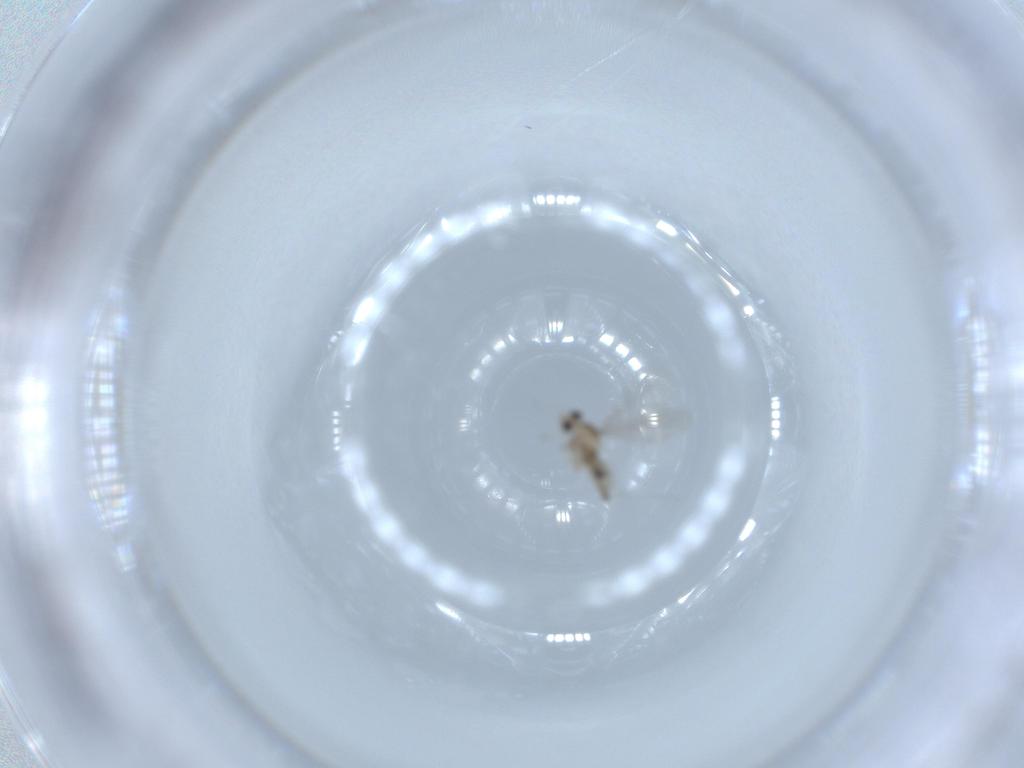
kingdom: Animalia
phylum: Arthropoda
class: Insecta
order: Diptera
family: Cecidomyiidae
